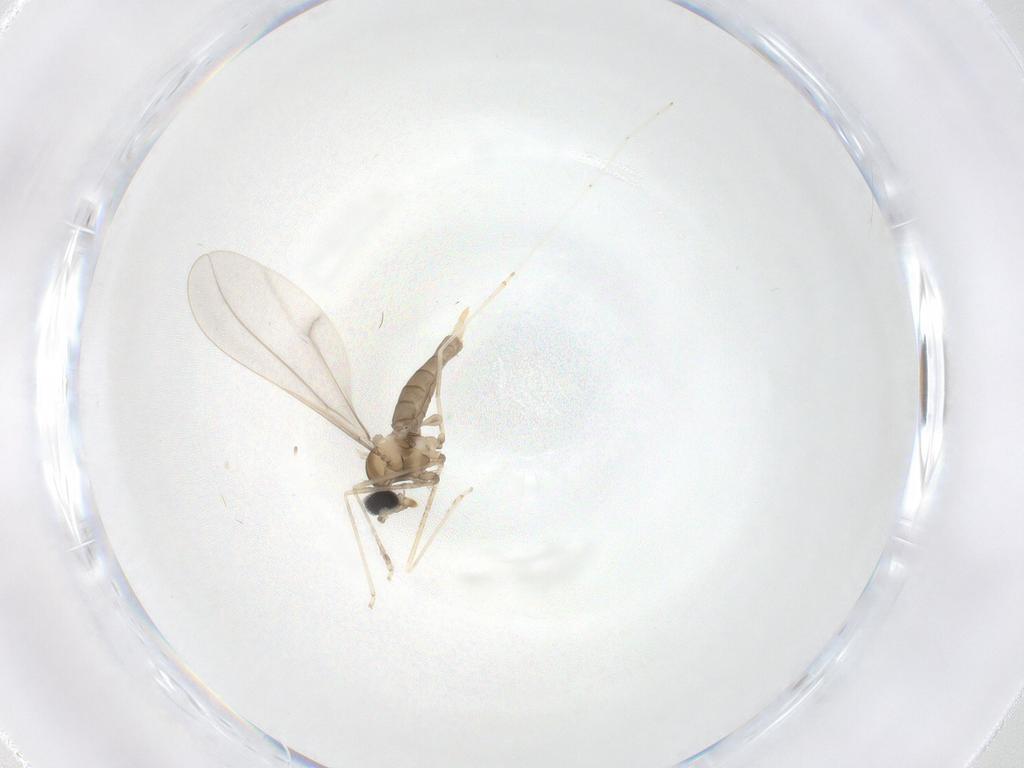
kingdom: Animalia
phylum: Arthropoda
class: Insecta
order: Diptera
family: Cecidomyiidae
